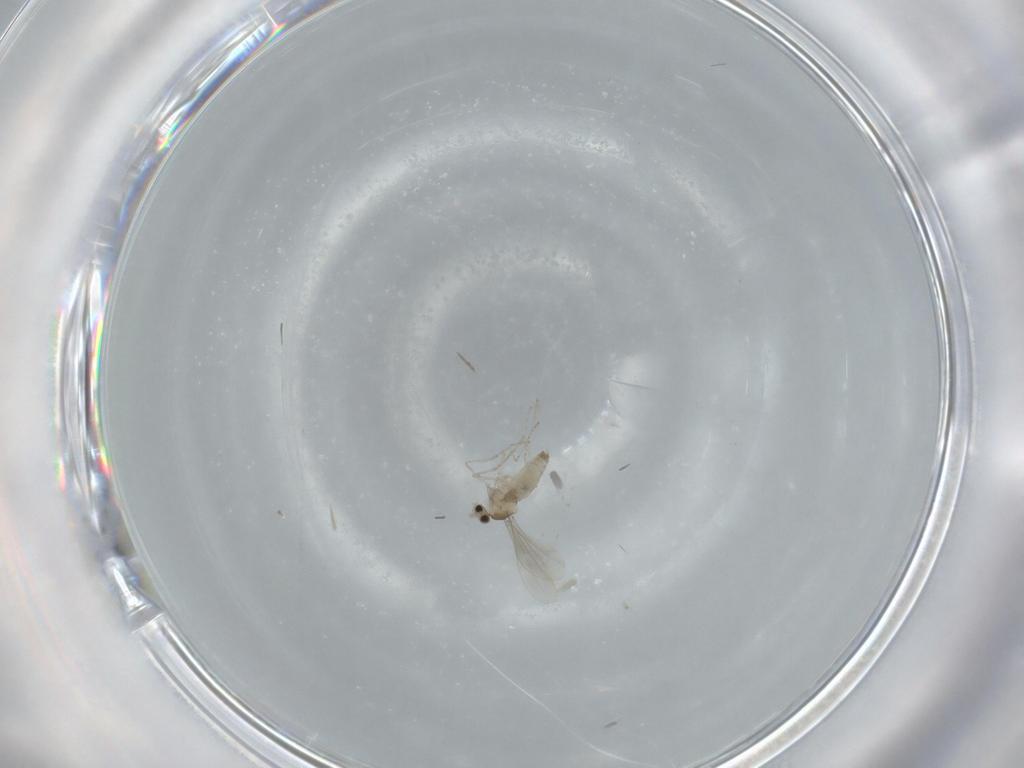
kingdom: Animalia
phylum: Arthropoda
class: Insecta
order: Diptera
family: Cecidomyiidae
